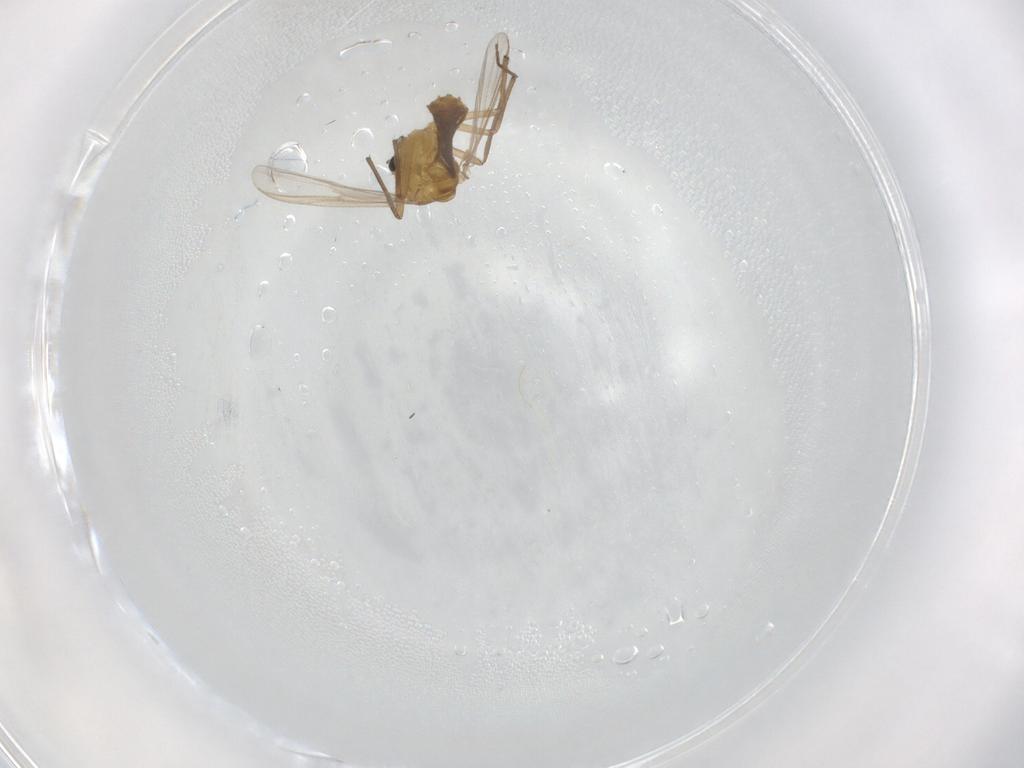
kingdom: Animalia
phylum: Arthropoda
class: Insecta
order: Diptera
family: Chironomidae
